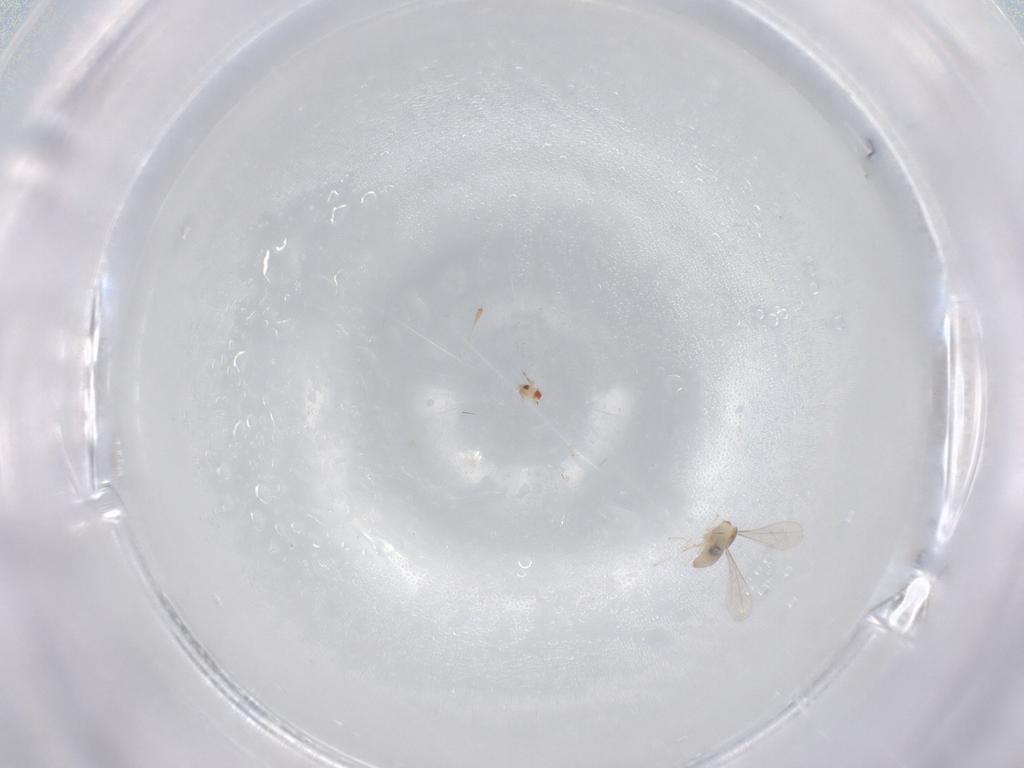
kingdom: Animalia
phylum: Arthropoda
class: Insecta
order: Diptera
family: Cecidomyiidae
